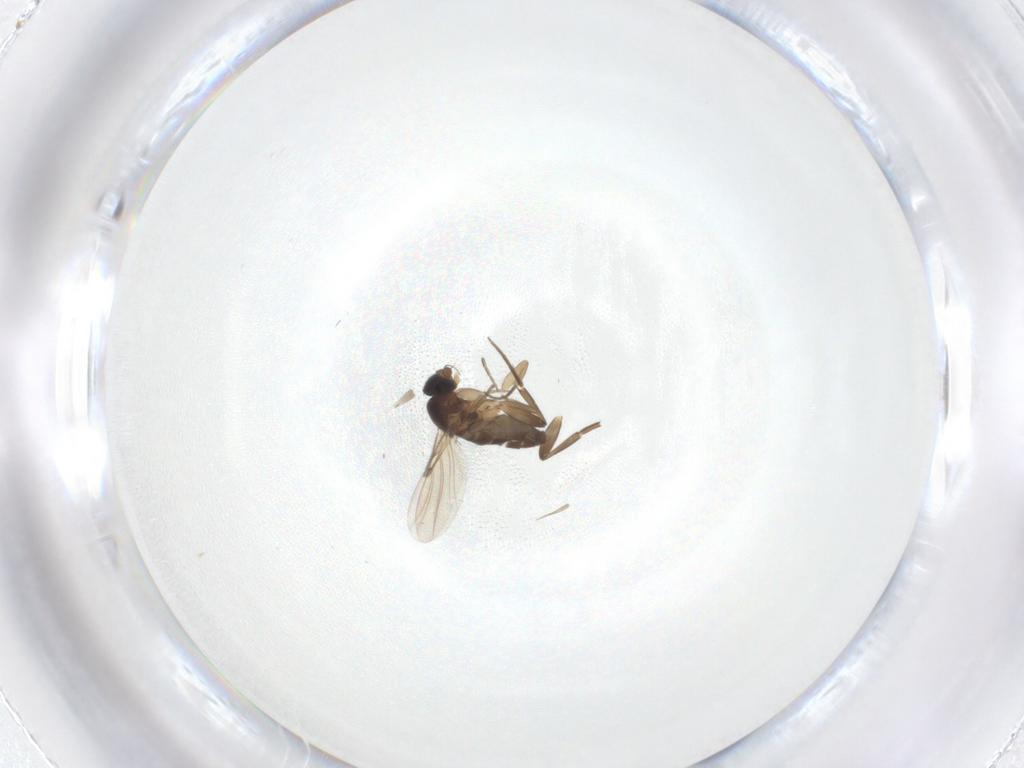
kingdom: Animalia
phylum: Arthropoda
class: Insecta
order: Diptera
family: Phoridae
